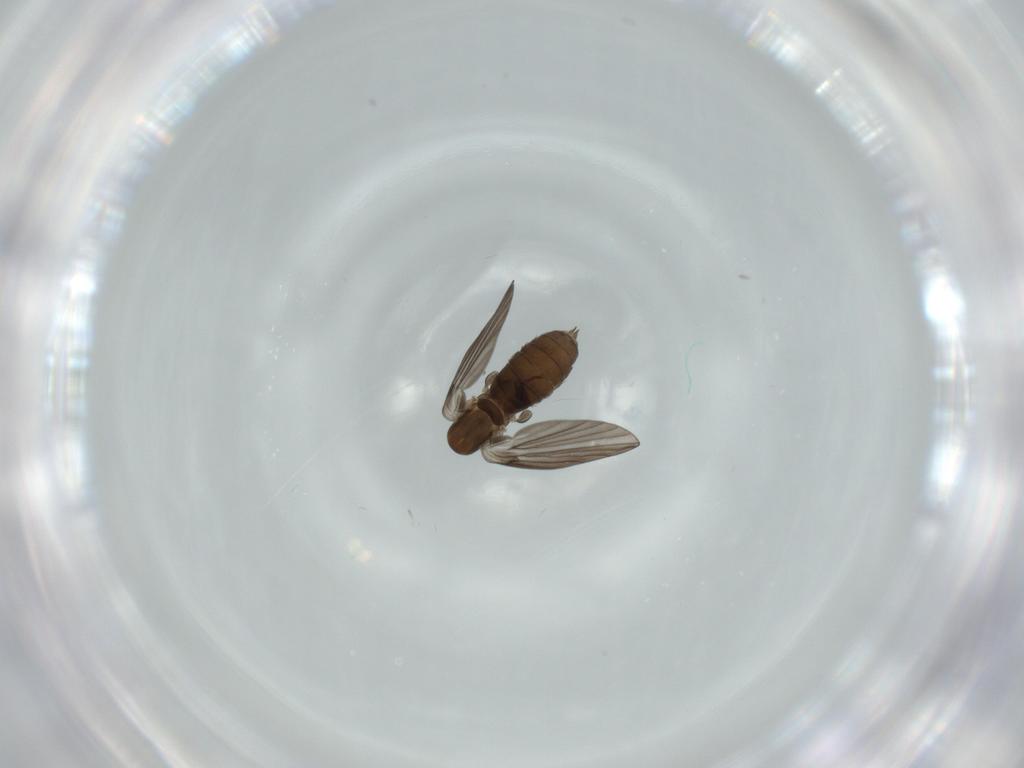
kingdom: Animalia
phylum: Arthropoda
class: Insecta
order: Diptera
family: Psychodidae
